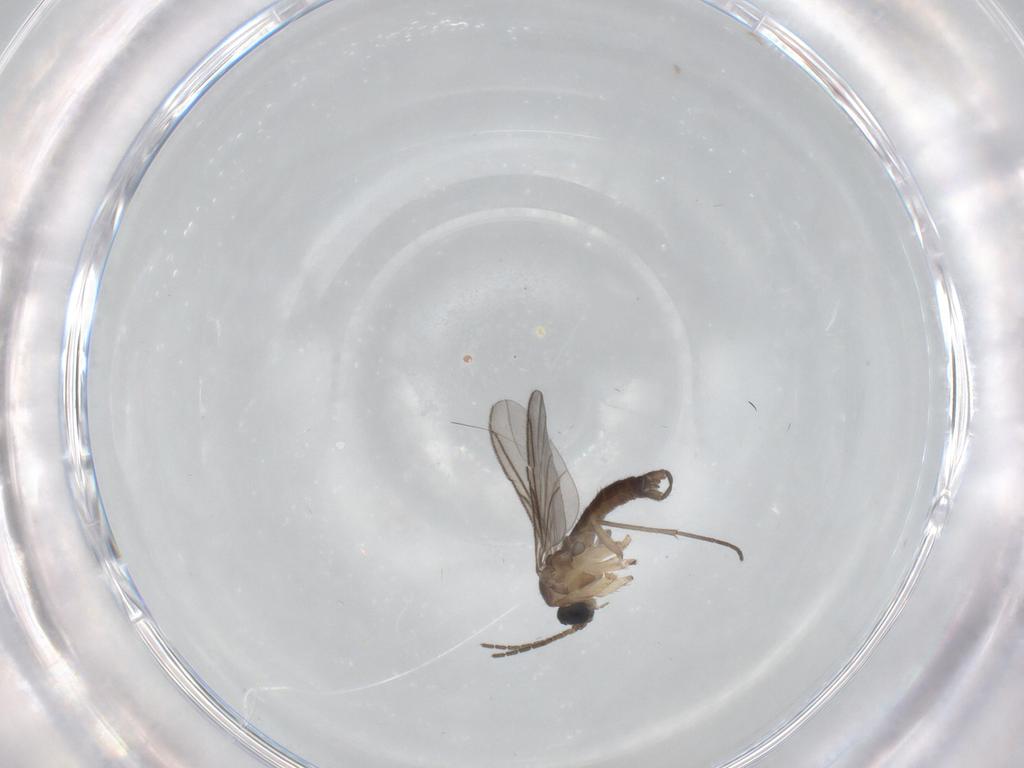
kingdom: Animalia
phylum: Arthropoda
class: Insecta
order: Diptera
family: Sciaridae
